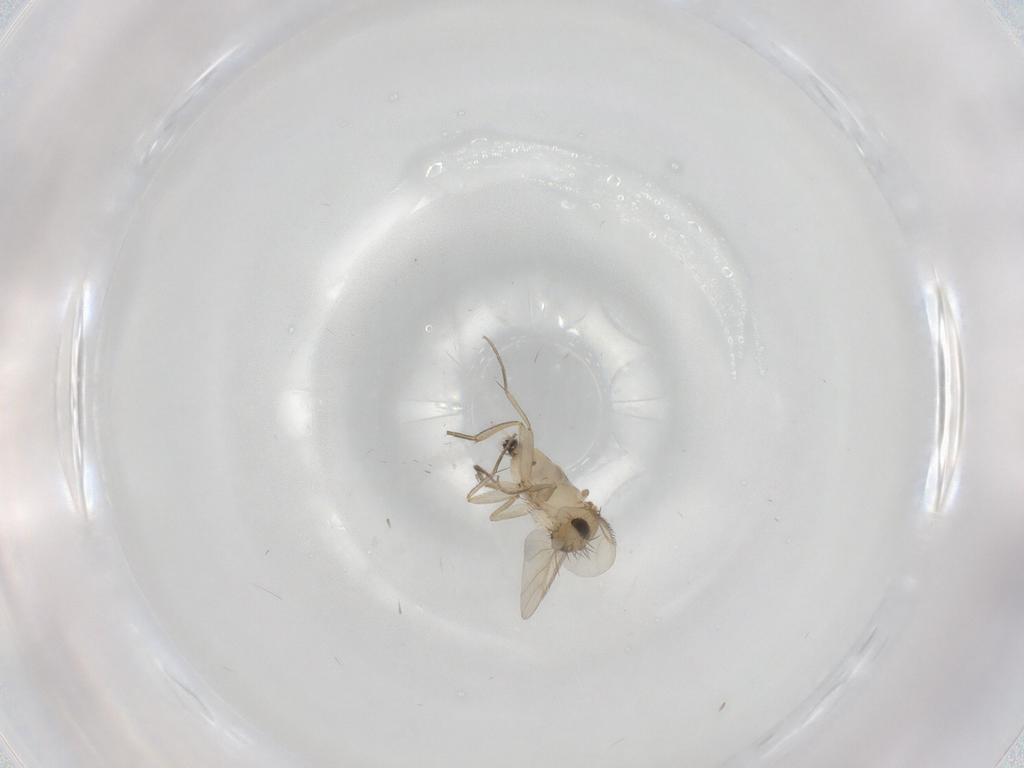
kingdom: Animalia
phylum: Arthropoda
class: Insecta
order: Diptera
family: Phoridae
